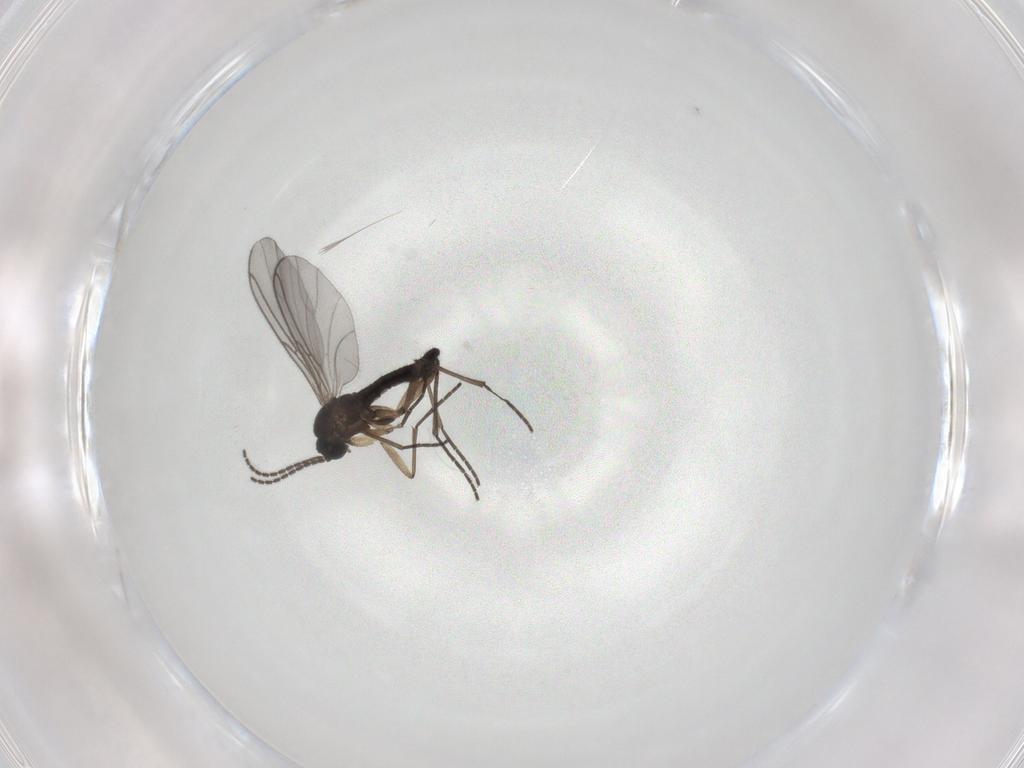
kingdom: Animalia
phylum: Arthropoda
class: Insecta
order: Diptera
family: Sciaridae
